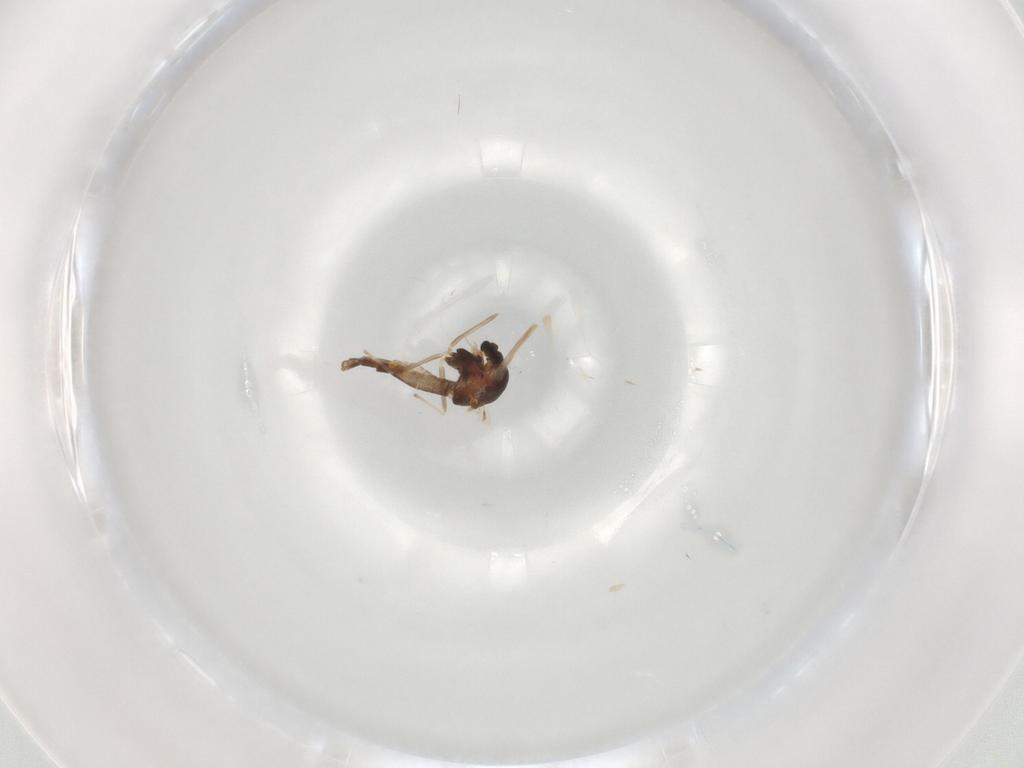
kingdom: Animalia
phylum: Arthropoda
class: Insecta
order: Diptera
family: Chironomidae
